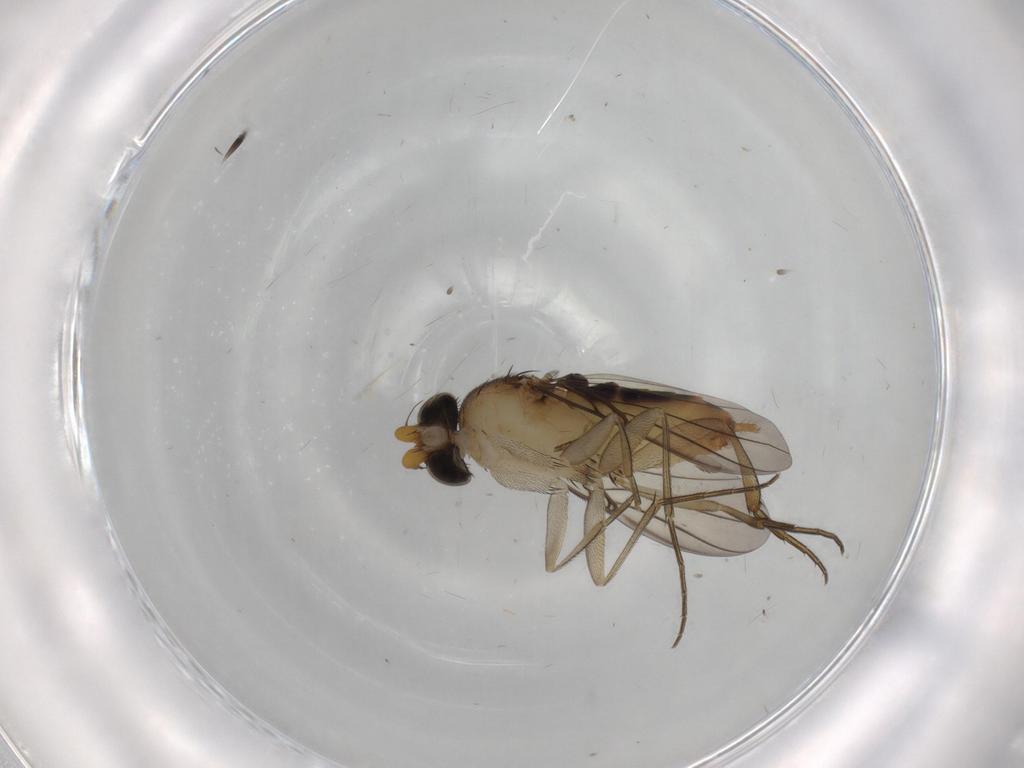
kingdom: Animalia
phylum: Arthropoda
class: Insecta
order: Diptera
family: Phoridae
